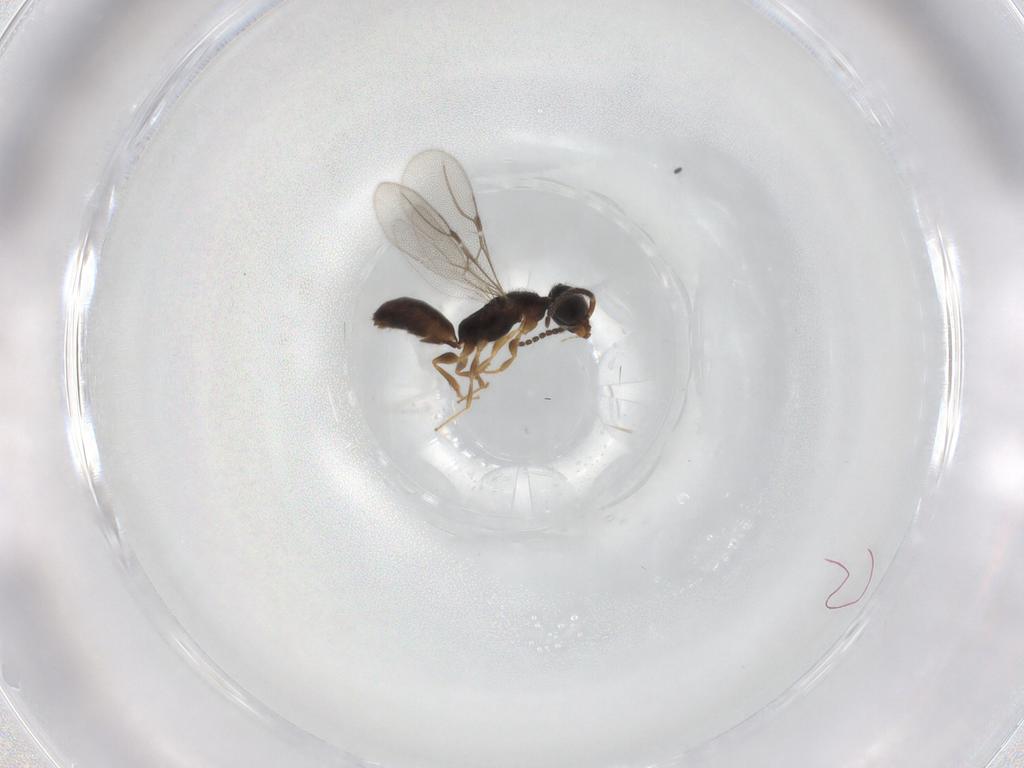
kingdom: Animalia
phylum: Arthropoda
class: Insecta
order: Hymenoptera
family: Bethylidae
